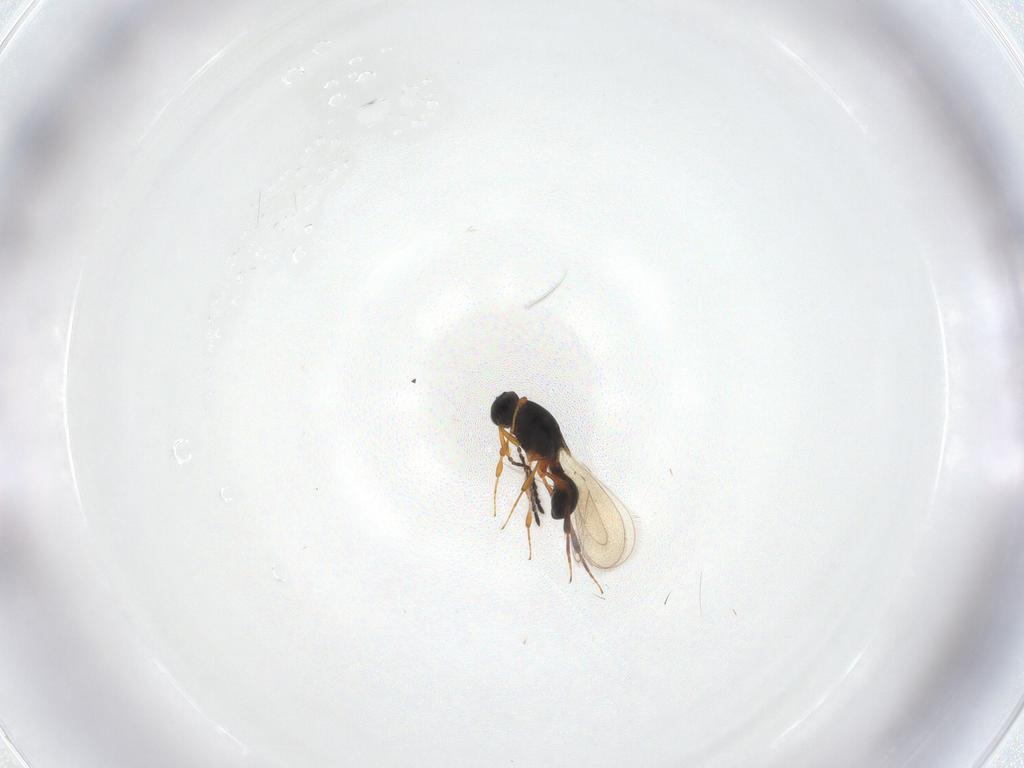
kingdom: Animalia
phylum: Arthropoda
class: Insecta
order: Hymenoptera
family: Platygastridae
